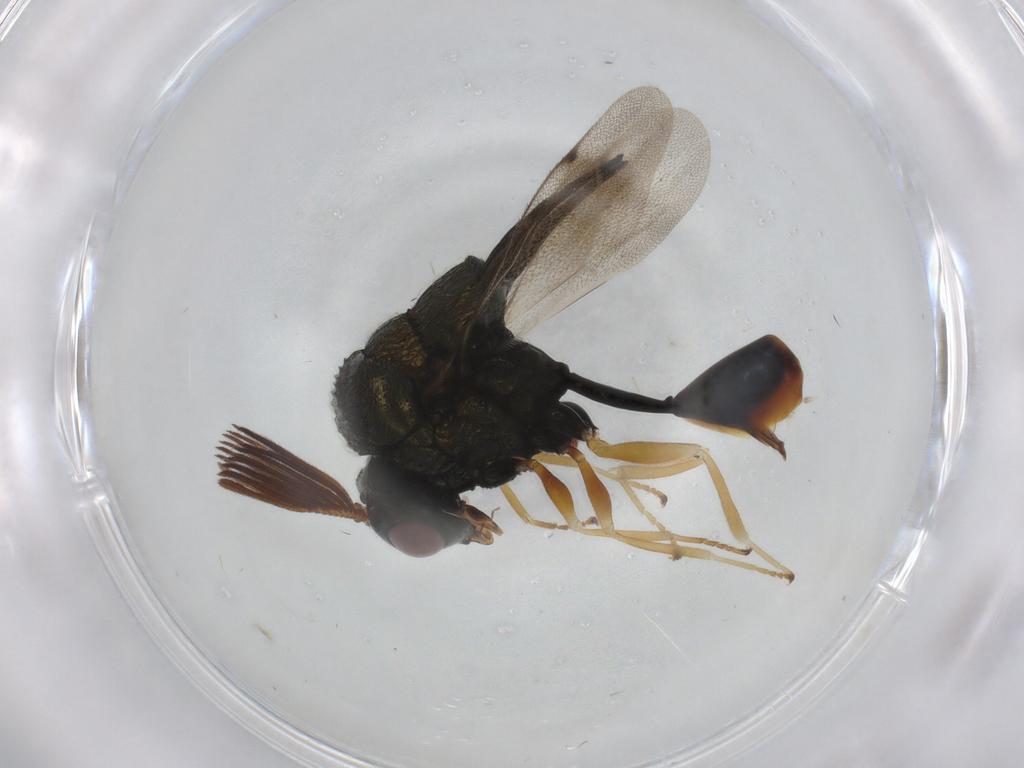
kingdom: Animalia
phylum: Arthropoda
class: Insecta
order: Hymenoptera
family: Vespidae
